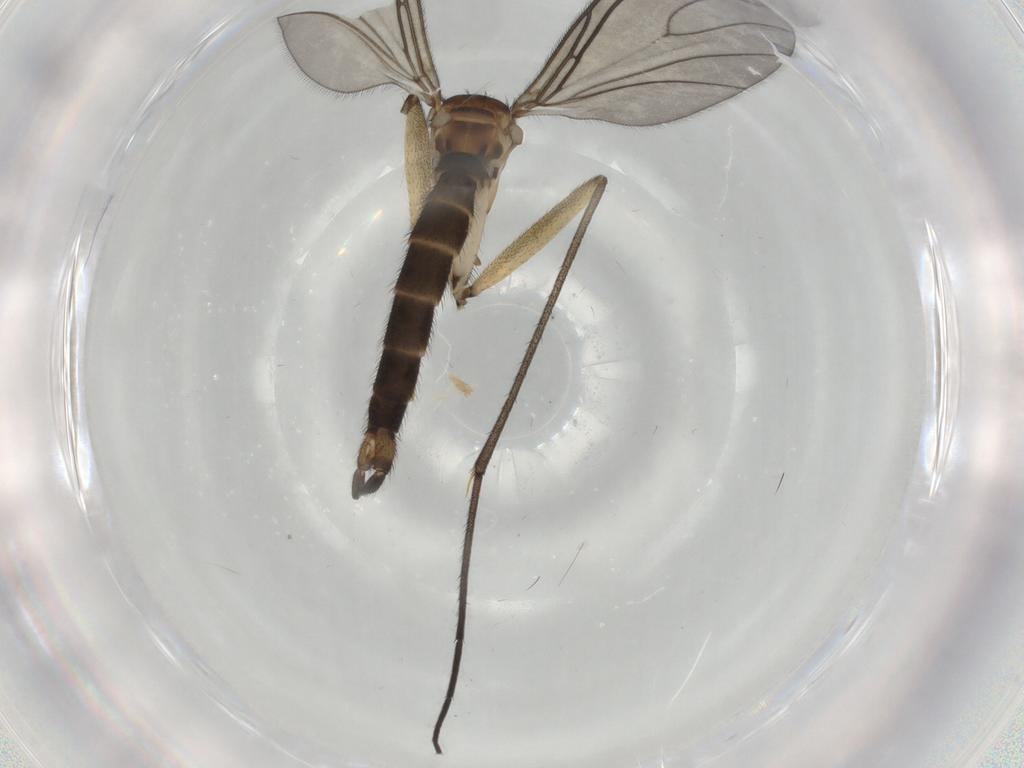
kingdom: Animalia
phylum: Arthropoda
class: Insecta
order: Diptera
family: Sciaridae
